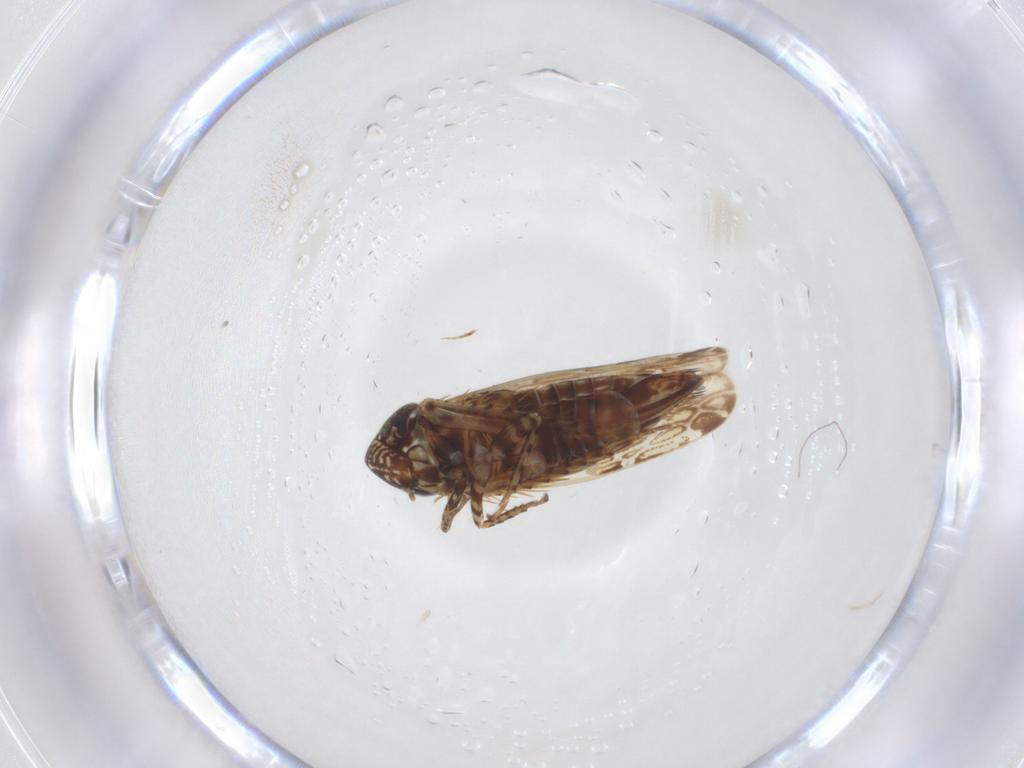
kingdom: Animalia
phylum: Arthropoda
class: Insecta
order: Hemiptera
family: Cicadellidae
